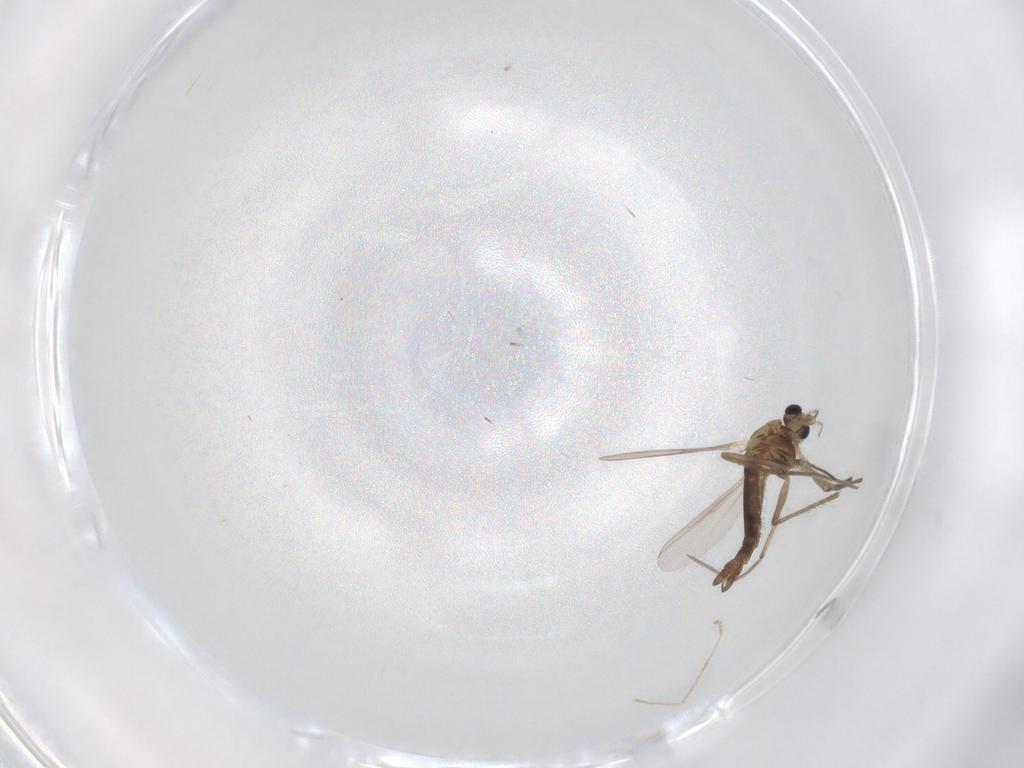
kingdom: Animalia
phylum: Arthropoda
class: Insecta
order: Diptera
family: Chironomidae
